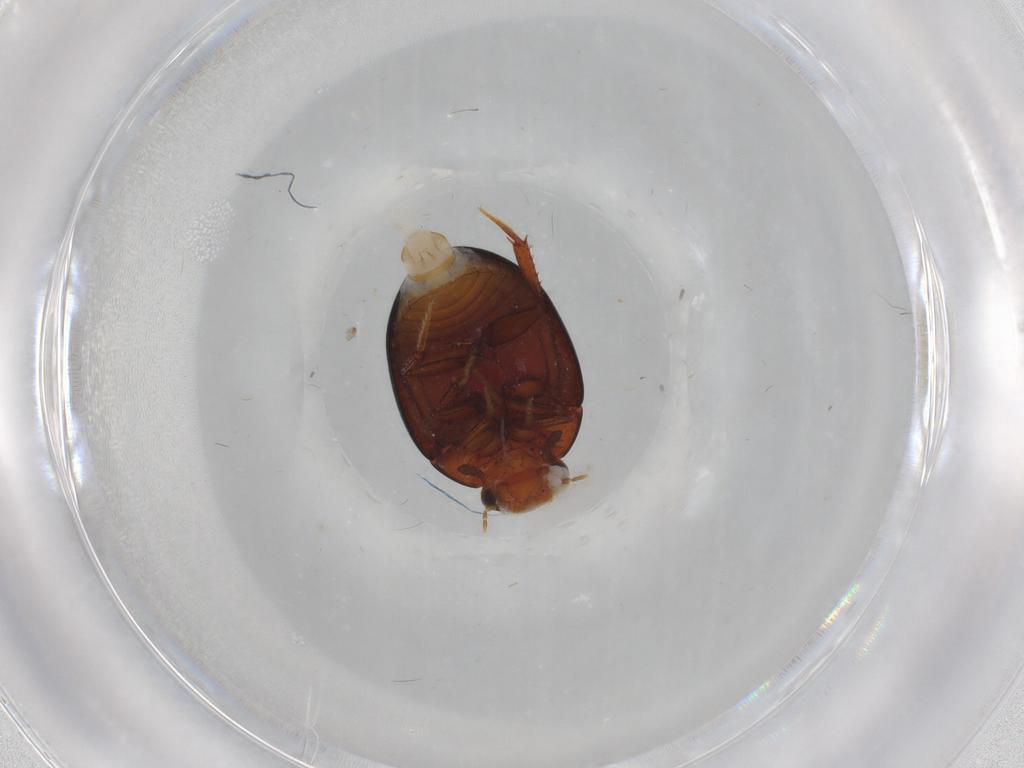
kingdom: Animalia
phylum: Arthropoda
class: Insecta
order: Coleoptera
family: Hydrophilidae
